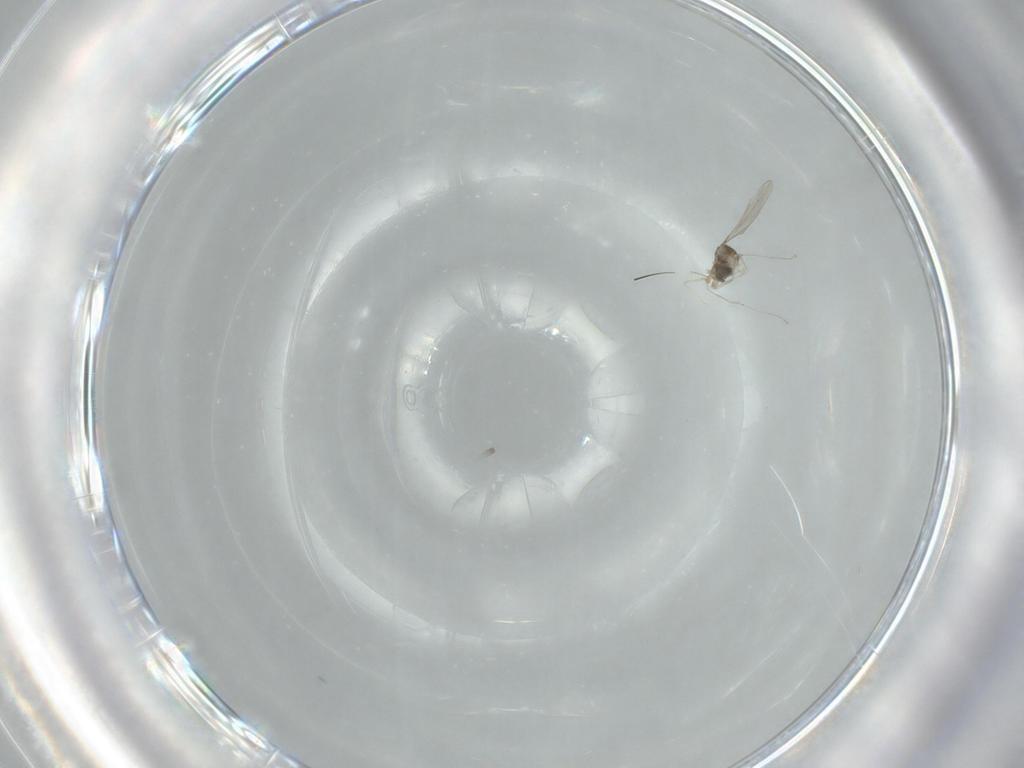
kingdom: Animalia
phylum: Arthropoda
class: Insecta
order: Diptera
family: Cecidomyiidae
